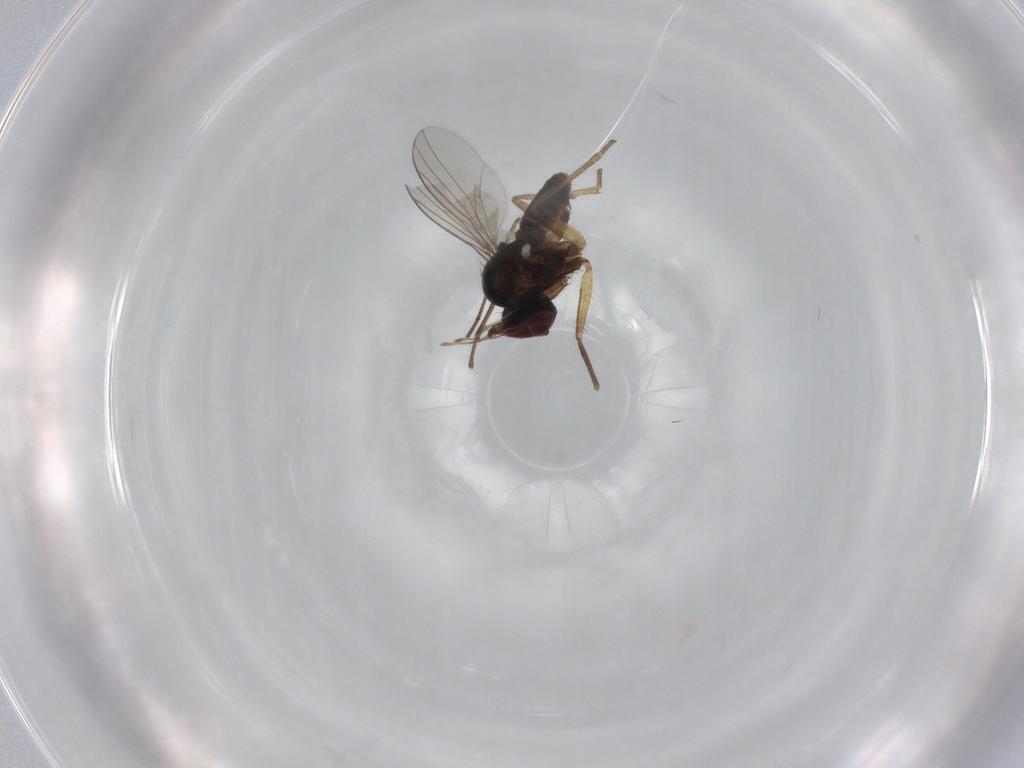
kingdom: Animalia
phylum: Arthropoda
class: Insecta
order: Diptera
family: Dolichopodidae
